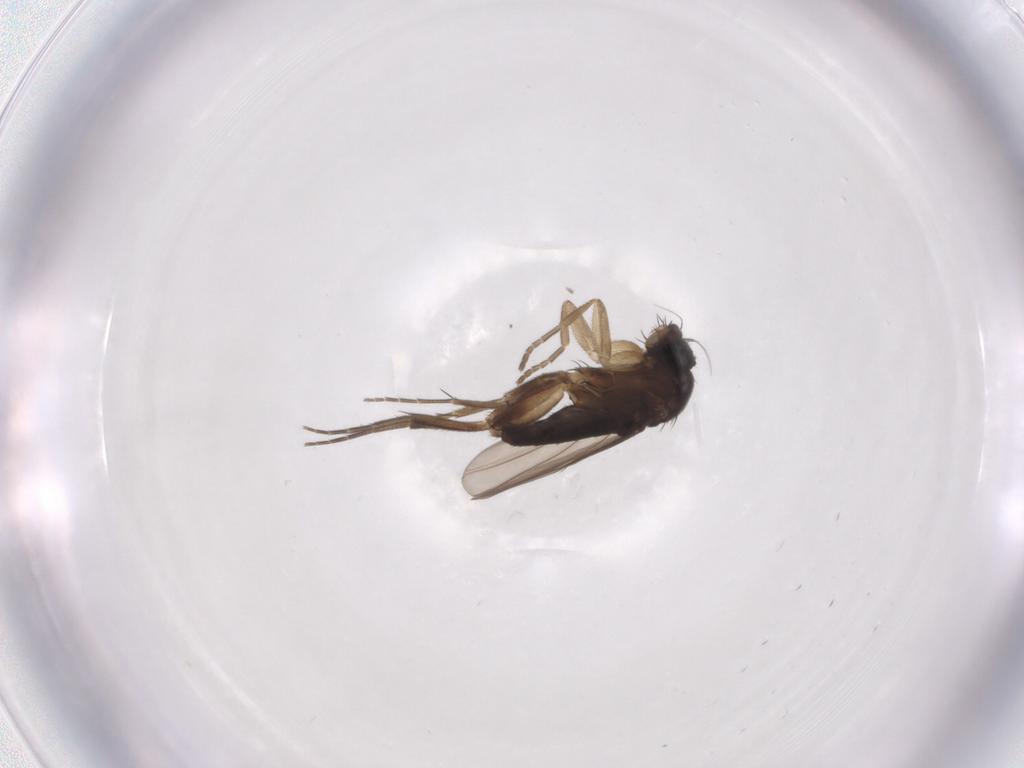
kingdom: Animalia
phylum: Arthropoda
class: Insecta
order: Diptera
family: Phoridae
